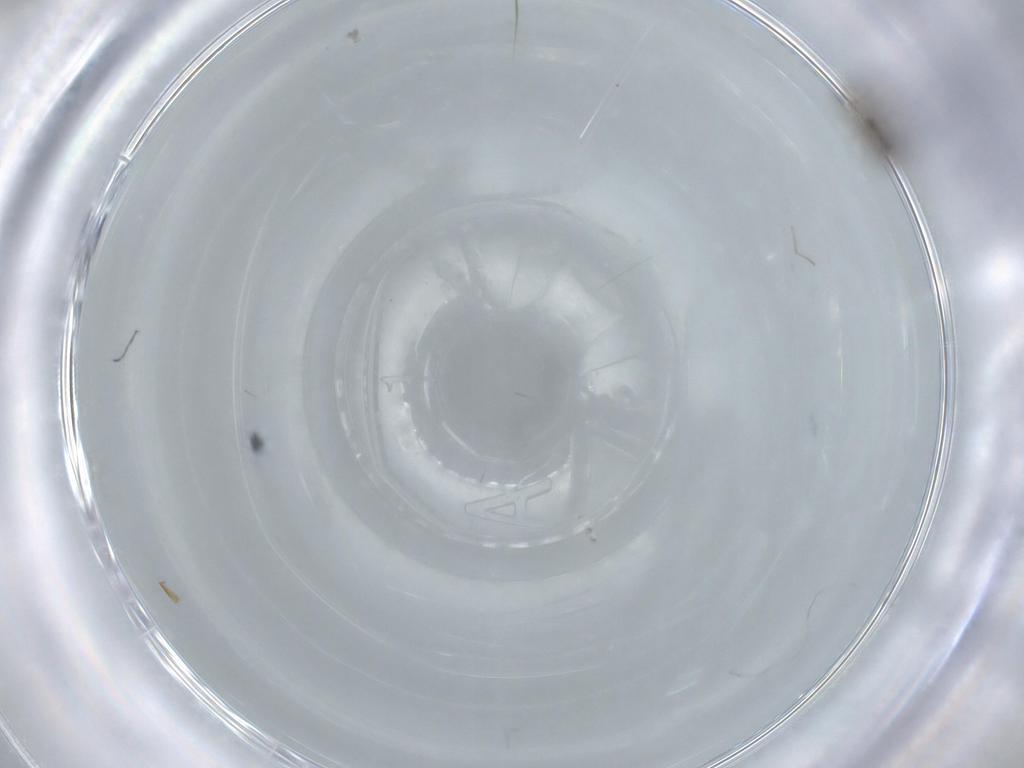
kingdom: Animalia
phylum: Arthropoda
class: Insecta
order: Diptera
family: Cecidomyiidae
